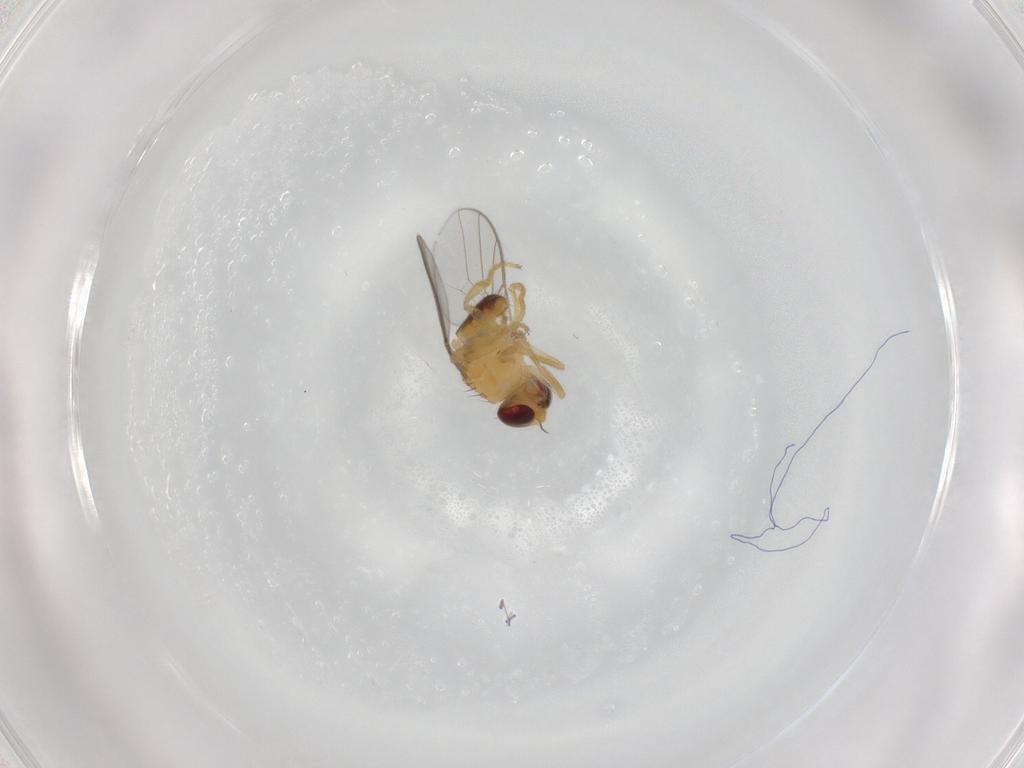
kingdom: Animalia
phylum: Arthropoda
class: Insecta
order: Diptera
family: Chloropidae
